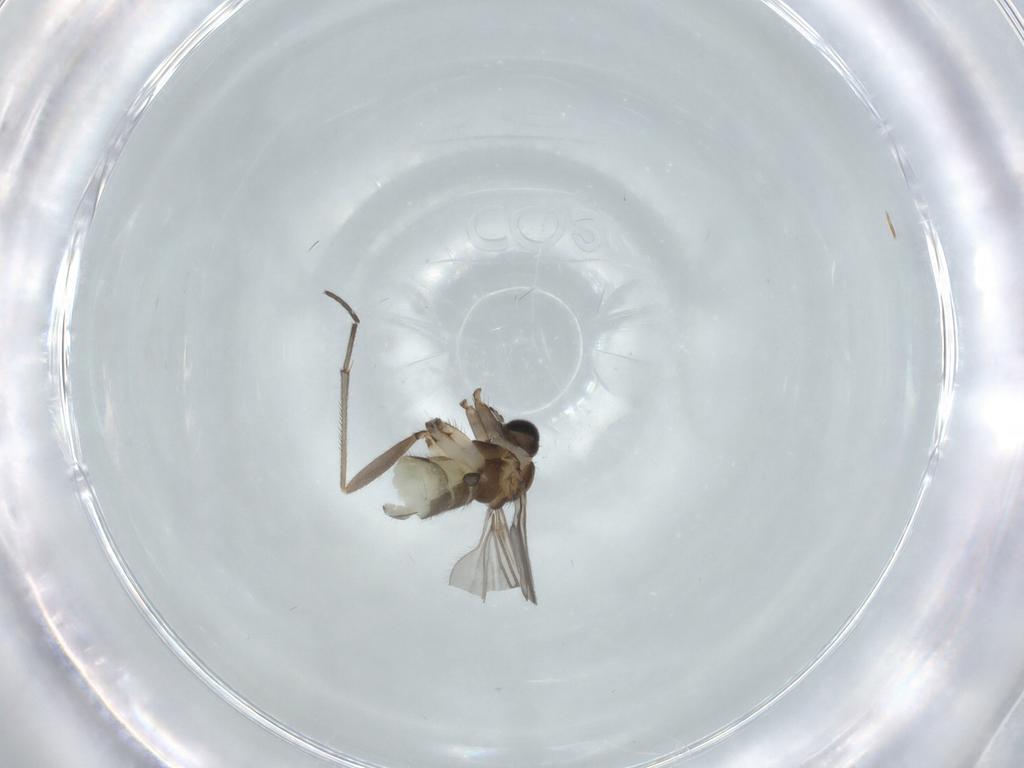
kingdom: Animalia
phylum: Arthropoda
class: Insecta
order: Diptera
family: Sciaridae
